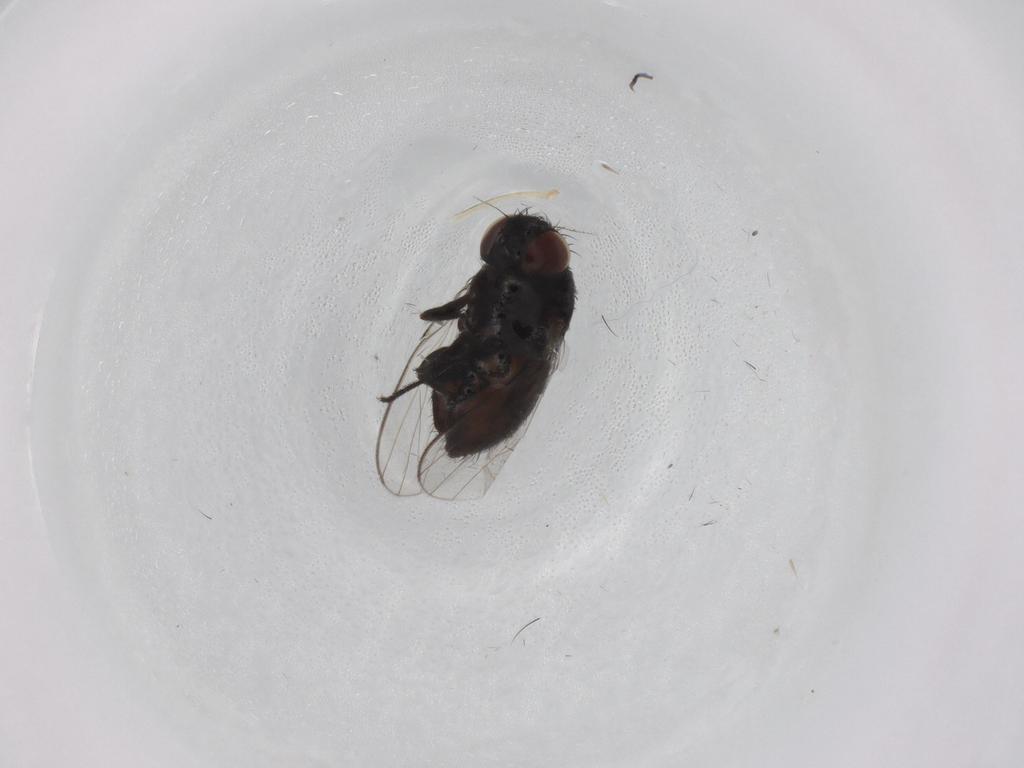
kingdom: Animalia
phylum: Arthropoda
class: Insecta
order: Diptera
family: Milichiidae
